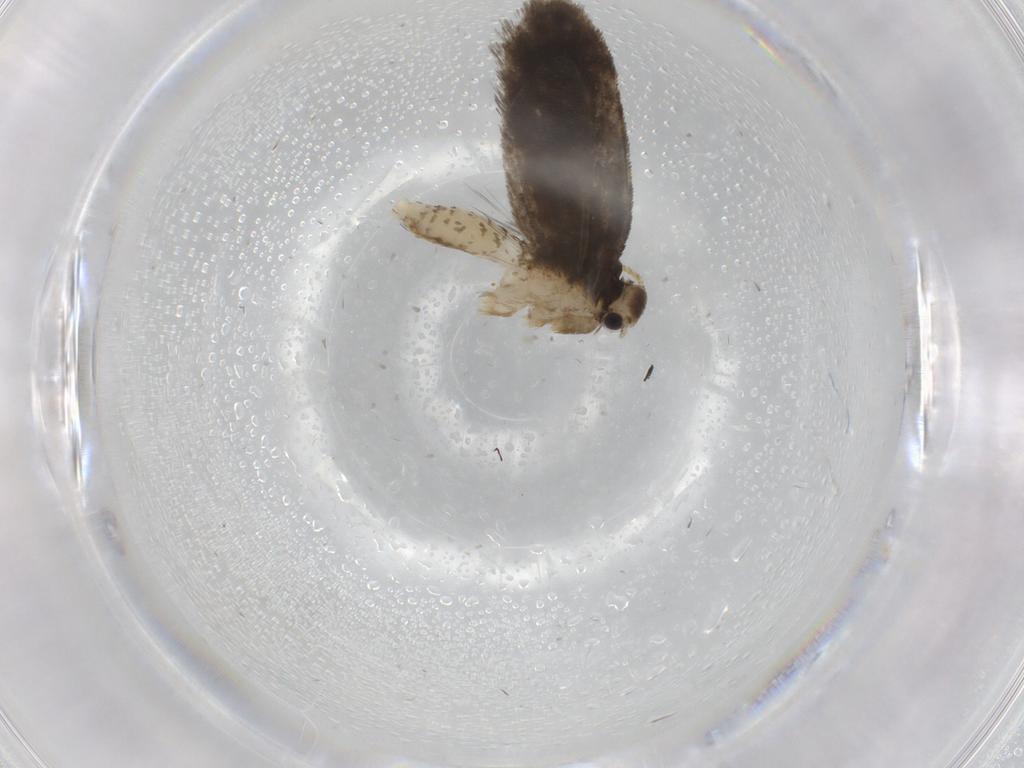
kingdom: Animalia
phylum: Arthropoda
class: Insecta
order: Lepidoptera
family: Psychidae
